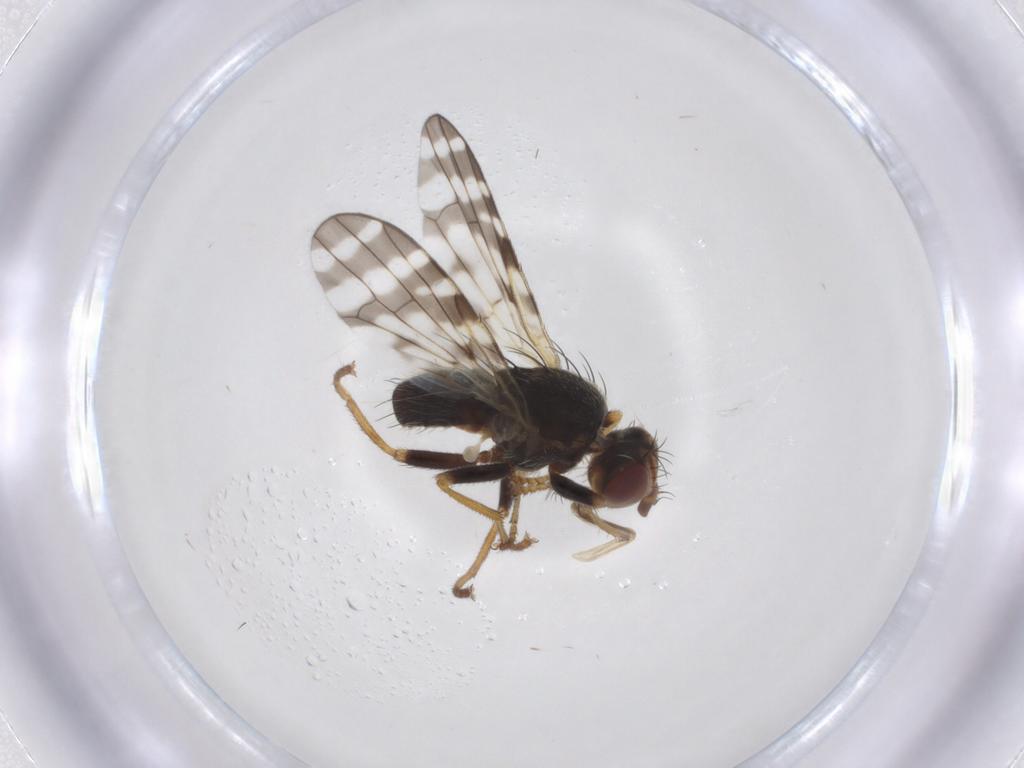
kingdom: Animalia
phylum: Arthropoda
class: Insecta
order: Diptera
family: Tephritidae
